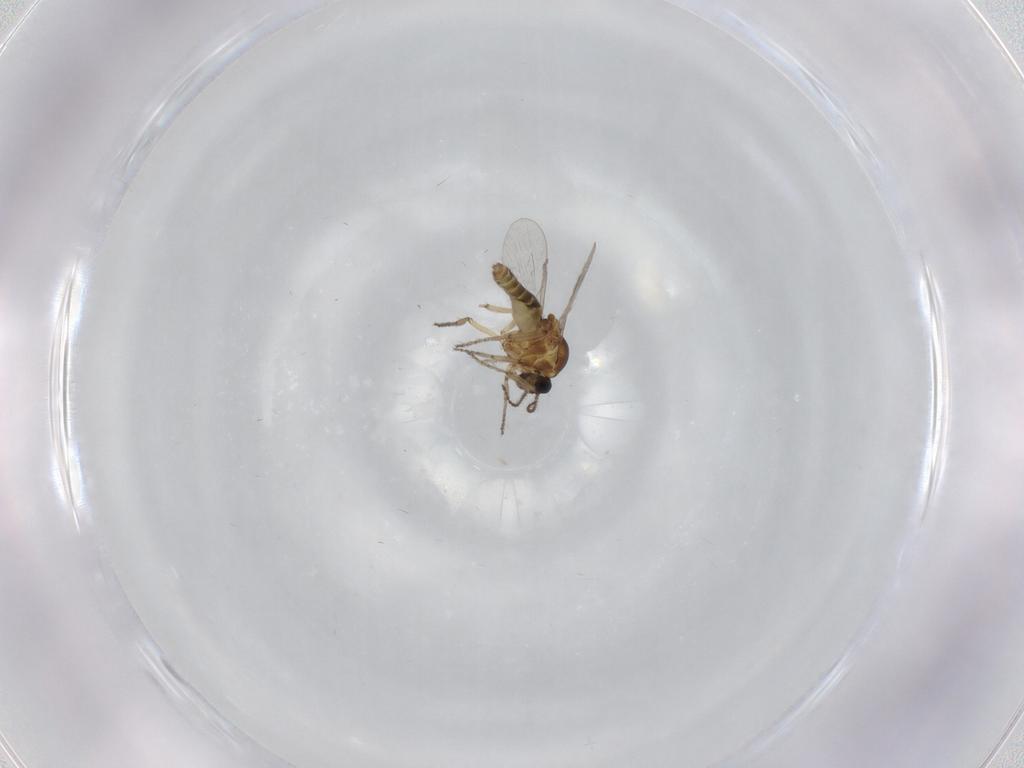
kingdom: Animalia
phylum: Arthropoda
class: Insecta
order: Diptera
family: Ceratopogonidae
